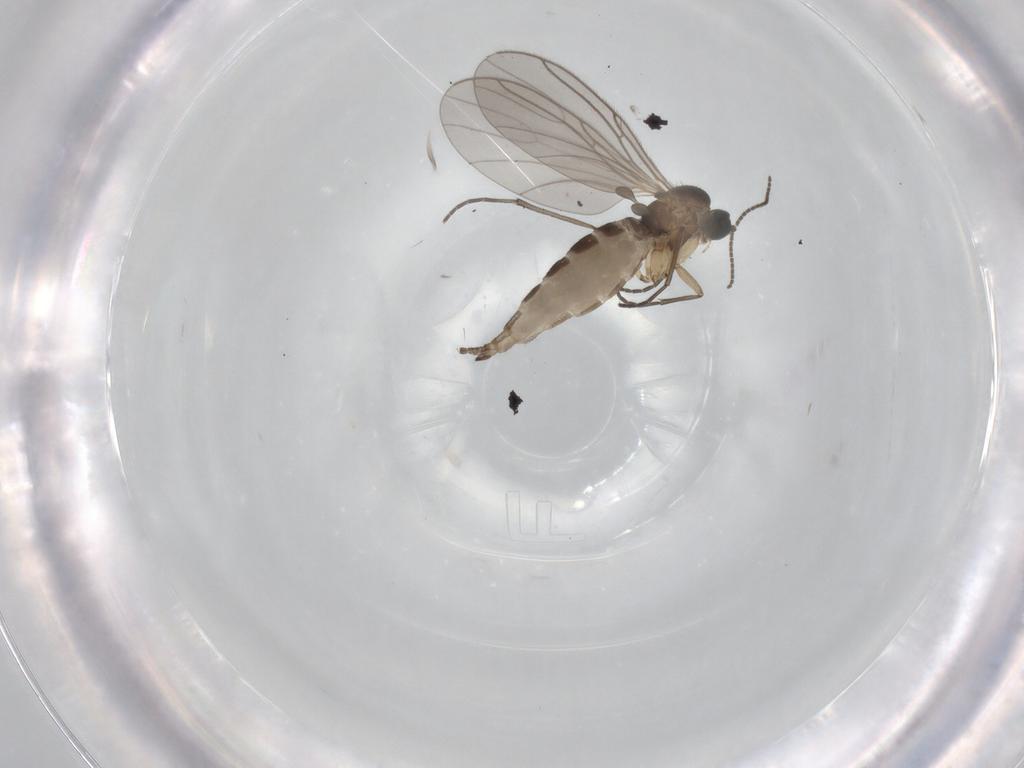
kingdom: Animalia
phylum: Arthropoda
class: Insecta
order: Diptera
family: Sciaridae
